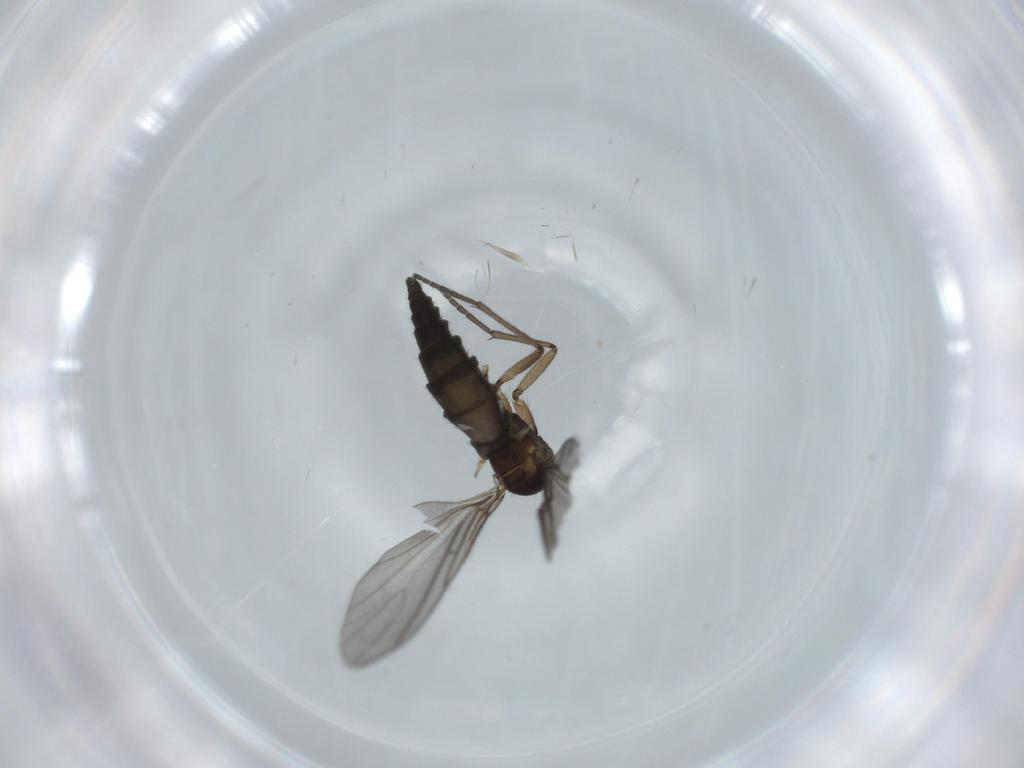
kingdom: Animalia
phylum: Arthropoda
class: Insecta
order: Diptera
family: Sciaridae
